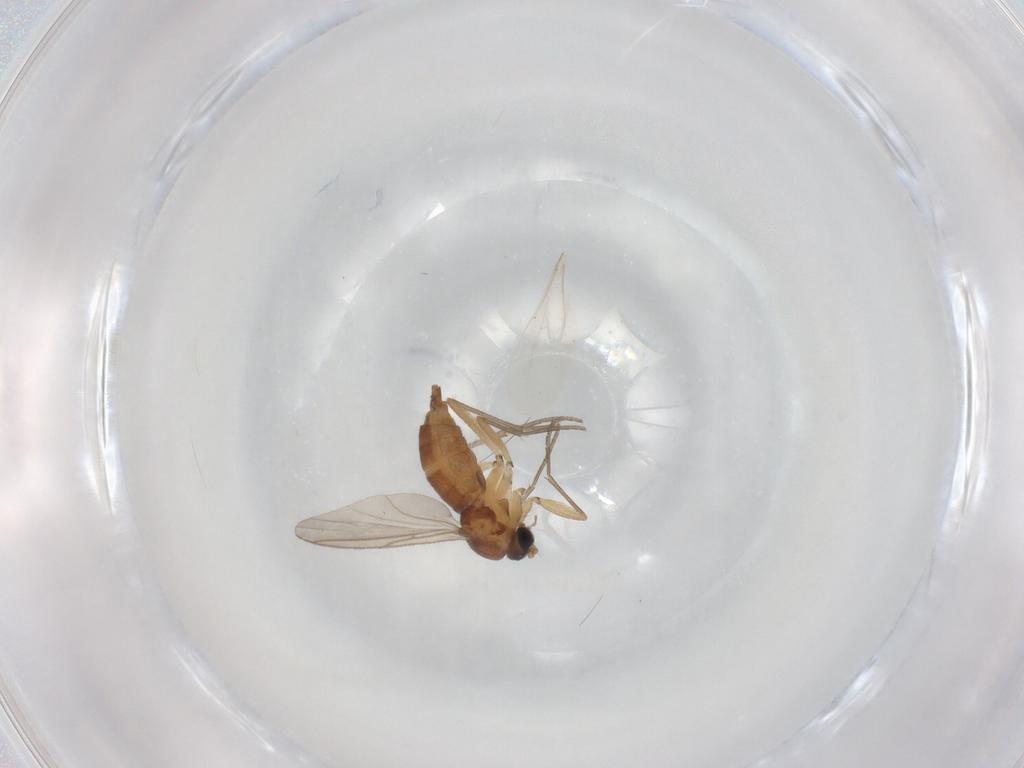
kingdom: Animalia
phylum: Arthropoda
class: Insecta
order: Diptera
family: Sciaridae
